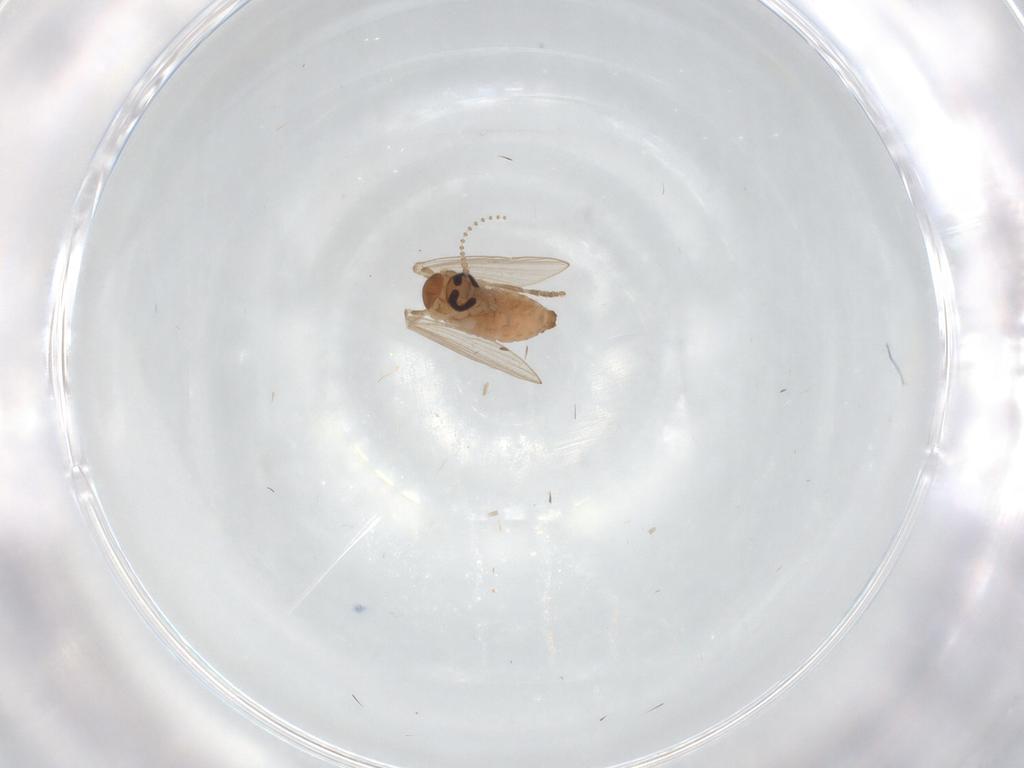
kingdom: Animalia
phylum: Arthropoda
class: Insecta
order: Diptera
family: Psychodidae
